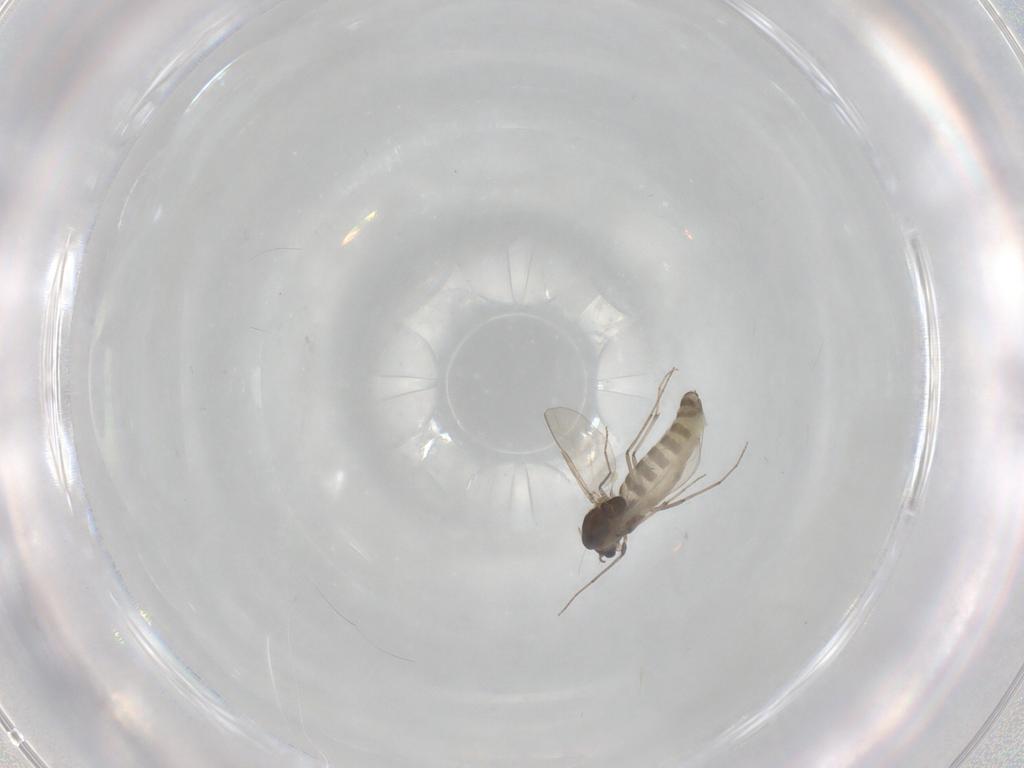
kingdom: Animalia
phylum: Arthropoda
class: Insecta
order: Diptera
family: Chironomidae
